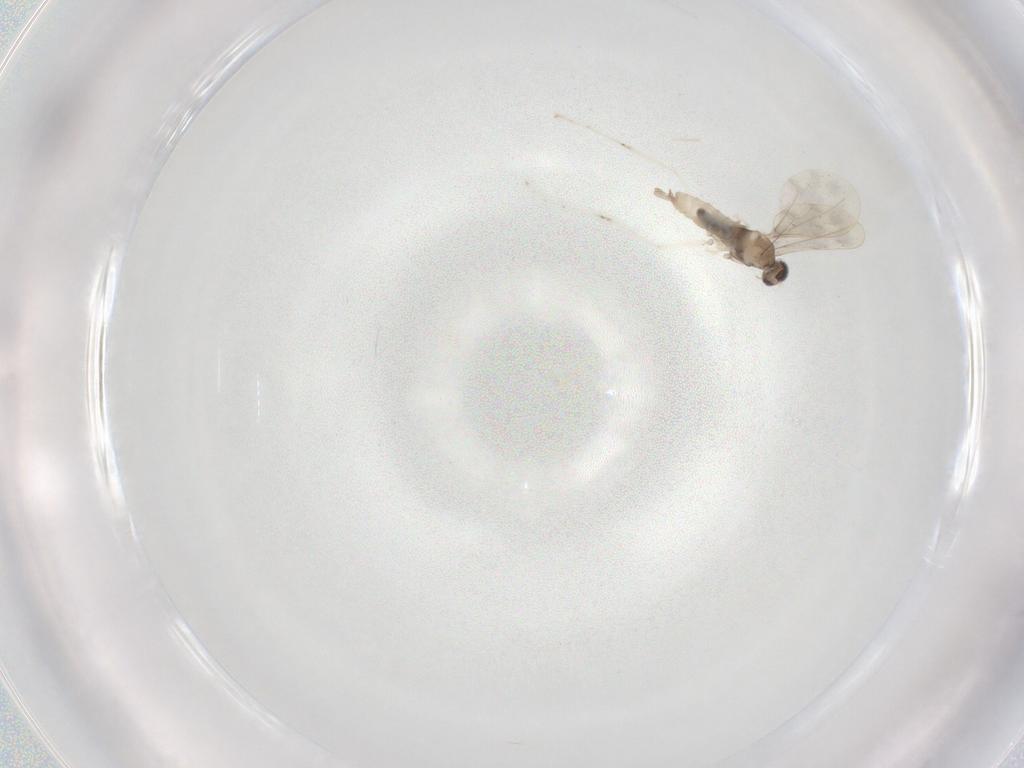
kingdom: Animalia
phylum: Arthropoda
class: Insecta
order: Diptera
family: Cecidomyiidae
